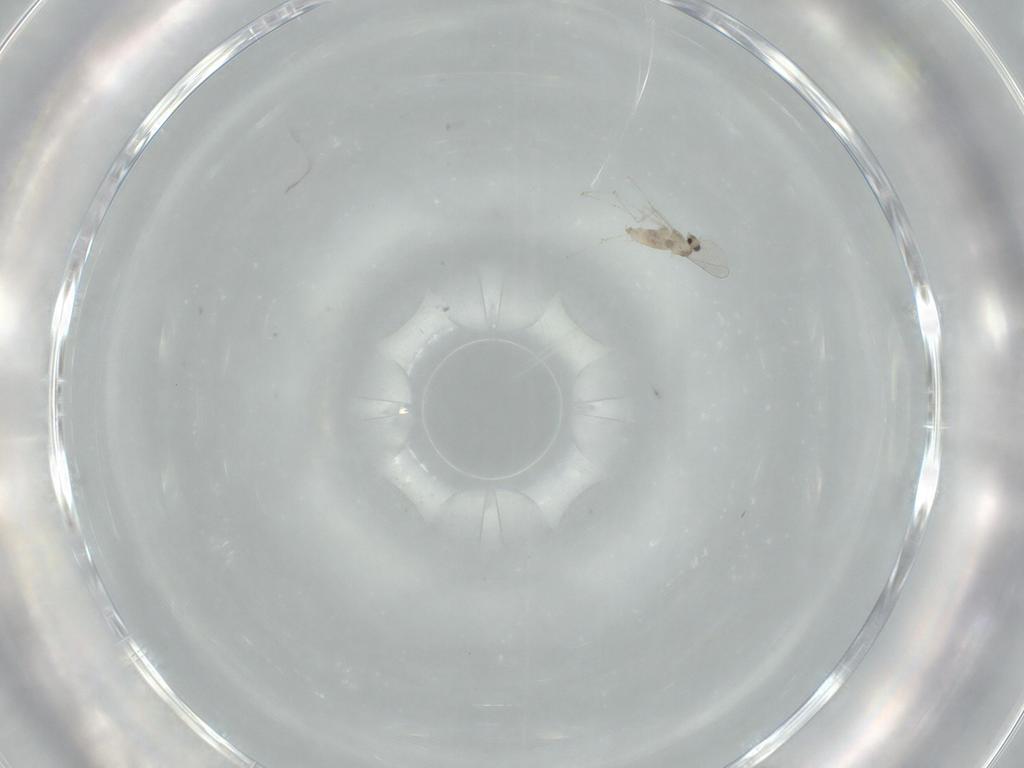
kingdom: Animalia
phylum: Arthropoda
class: Insecta
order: Diptera
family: Cecidomyiidae
